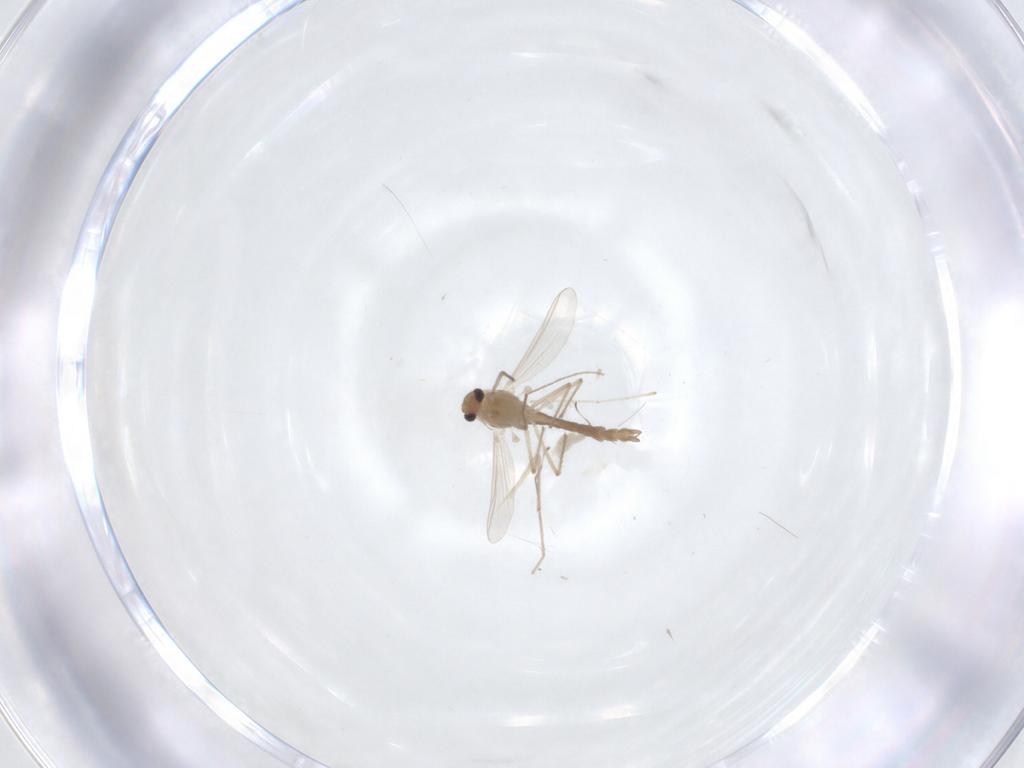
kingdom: Animalia
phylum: Arthropoda
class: Insecta
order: Diptera
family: Chironomidae
